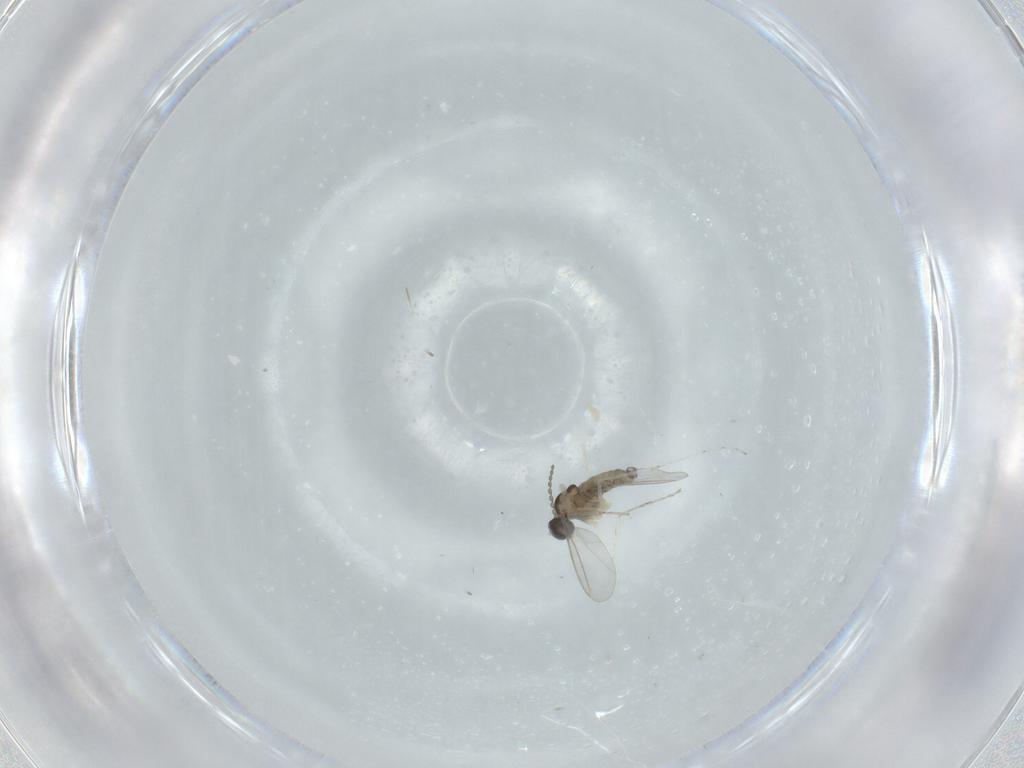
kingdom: Animalia
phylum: Arthropoda
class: Insecta
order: Diptera
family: Cecidomyiidae
